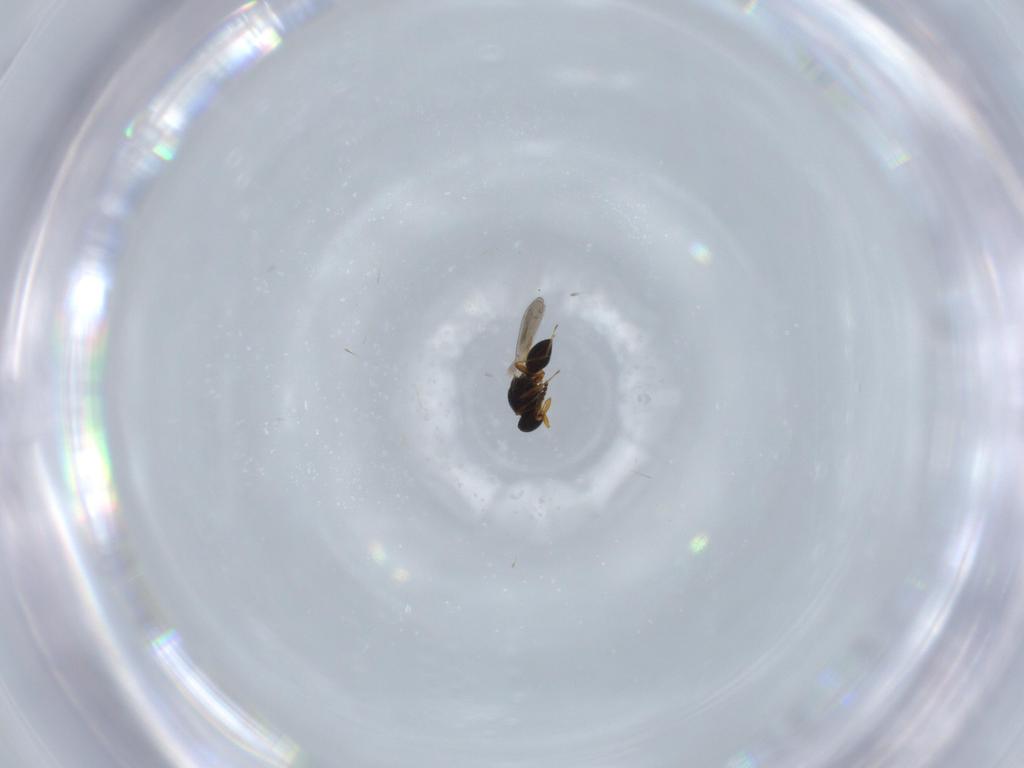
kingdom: Animalia
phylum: Arthropoda
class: Insecta
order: Hymenoptera
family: Platygastridae
